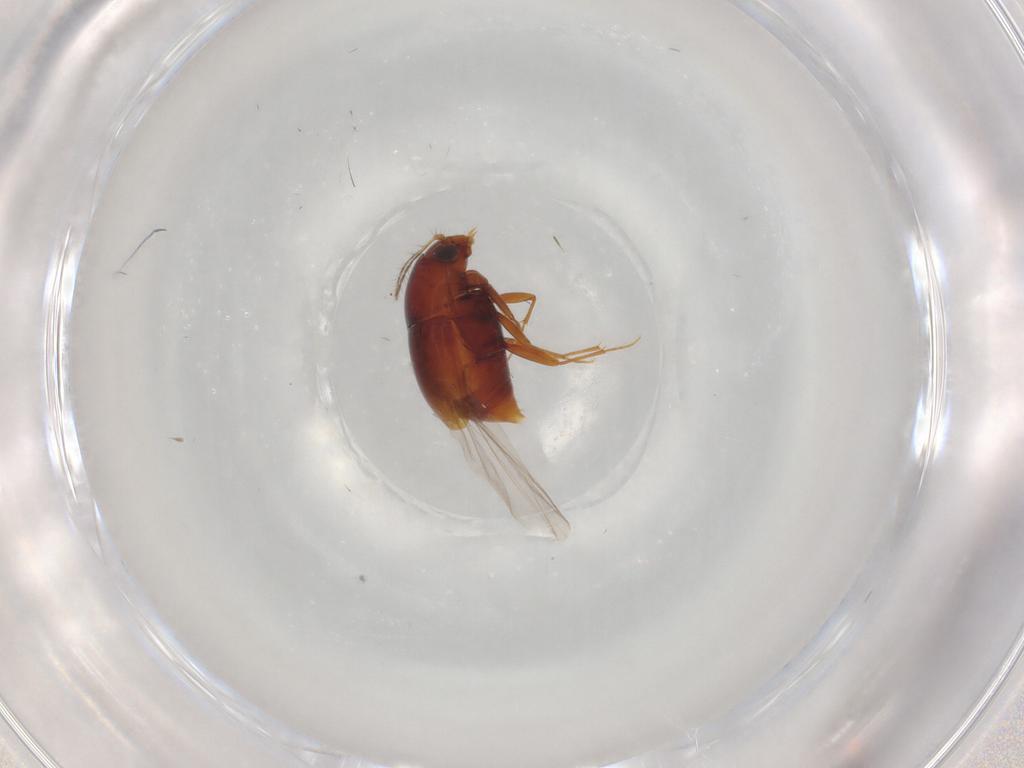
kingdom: Animalia
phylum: Arthropoda
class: Insecta
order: Coleoptera
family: Staphylinidae
